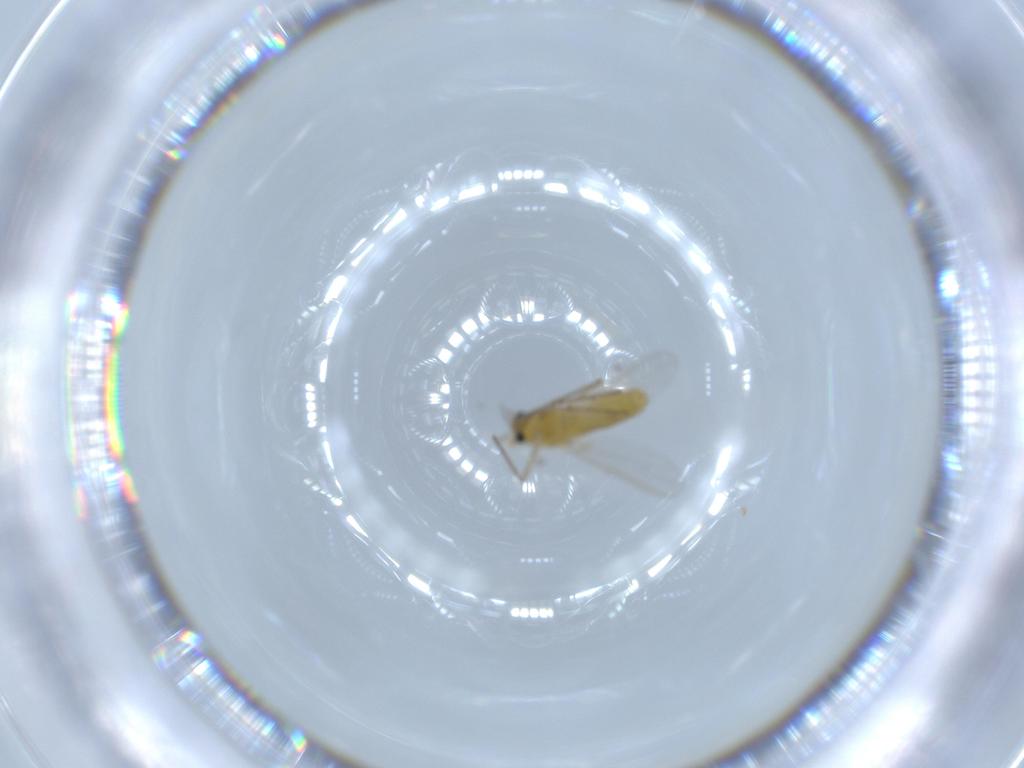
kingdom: Animalia
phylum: Arthropoda
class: Insecta
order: Diptera
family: Chironomidae
